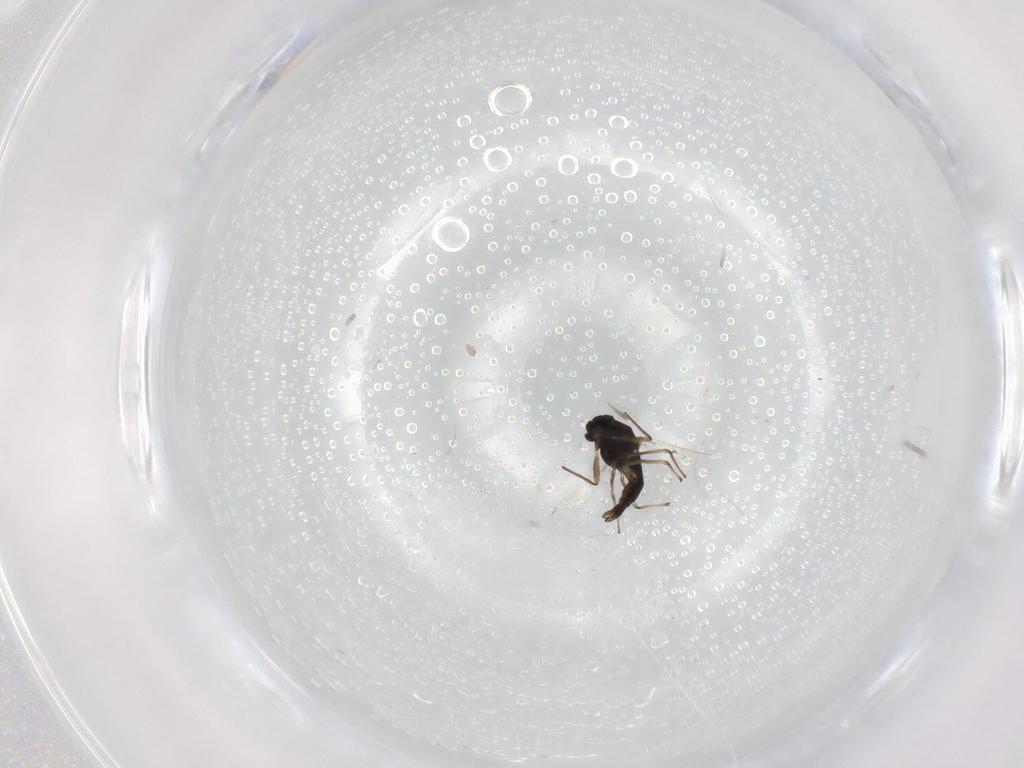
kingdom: Animalia
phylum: Arthropoda
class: Insecta
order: Diptera
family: Chironomidae
